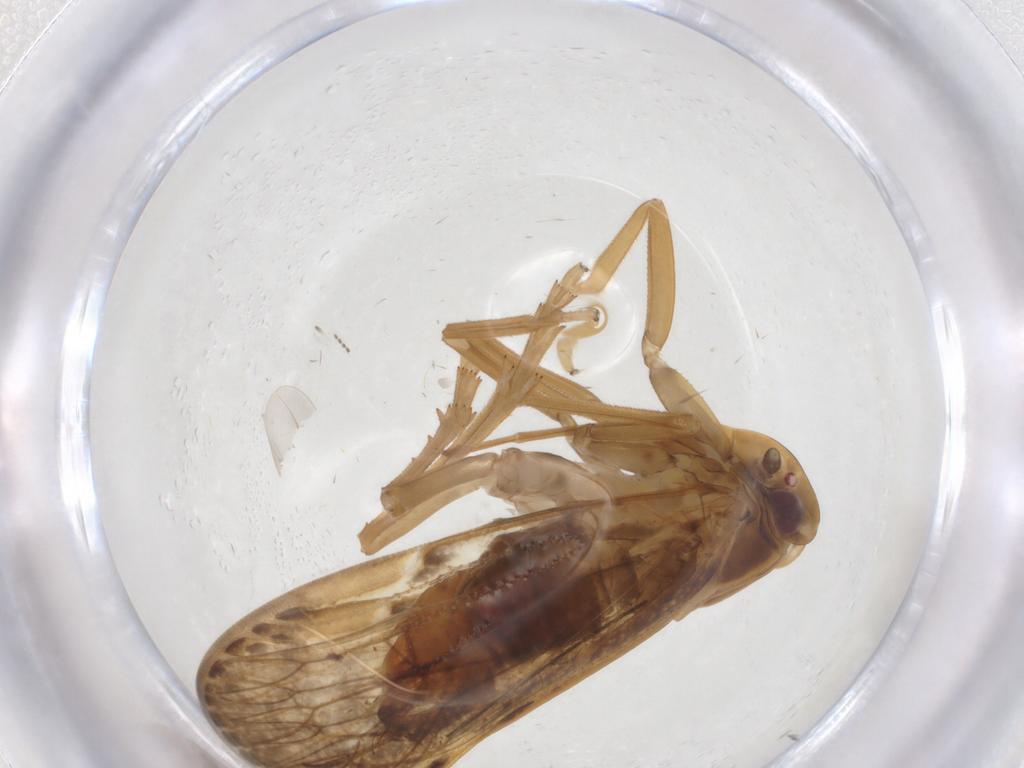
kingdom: Animalia
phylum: Arthropoda
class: Insecta
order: Hemiptera
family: Cixiidae
